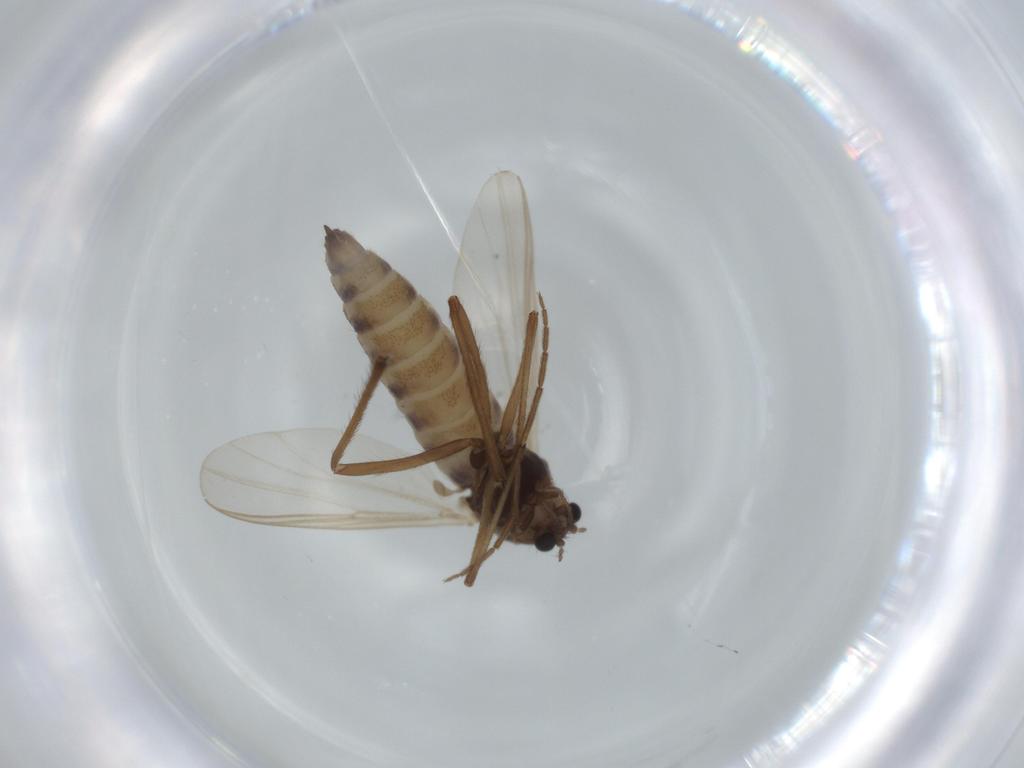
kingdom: Animalia
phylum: Arthropoda
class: Insecta
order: Diptera
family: Chironomidae
